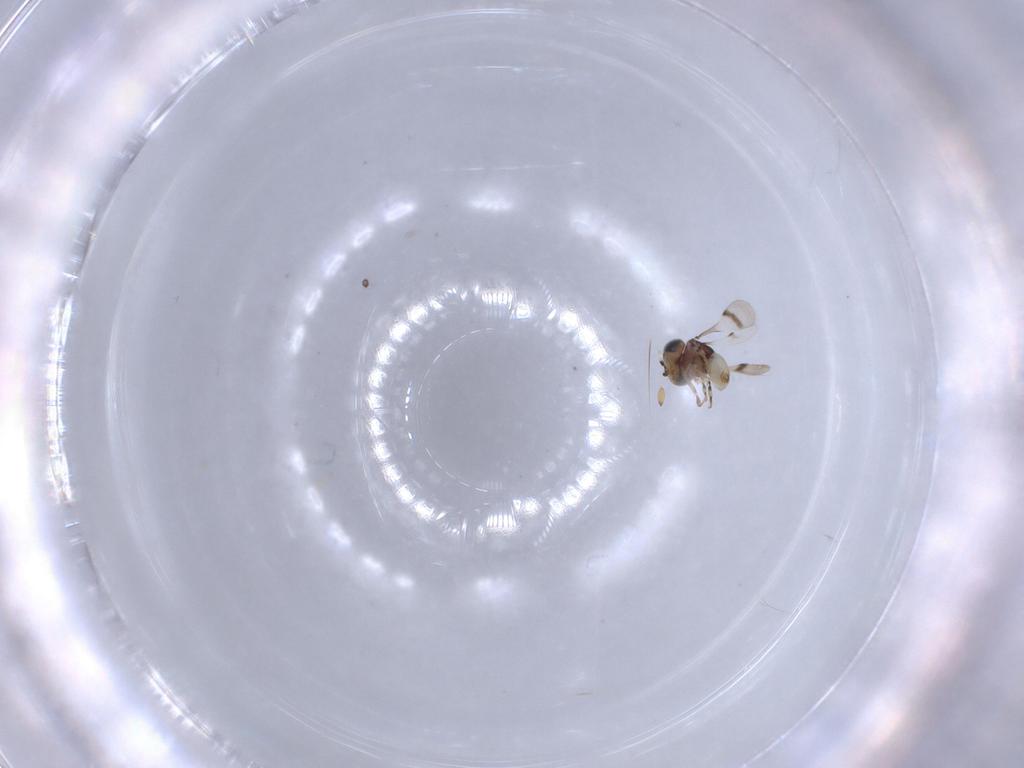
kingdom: Animalia
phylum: Arthropoda
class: Insecta
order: Hymenoptera
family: Scelionidae
